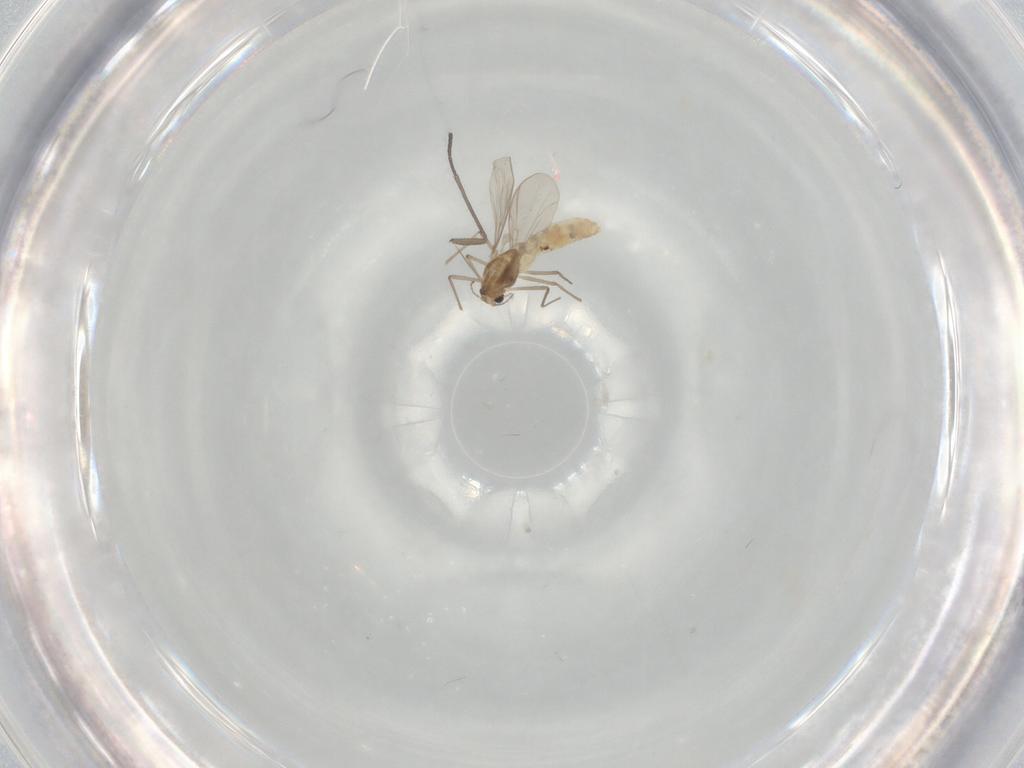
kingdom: Animalia
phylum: Arthropoda
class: Insecta
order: Diptera
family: Chironomidae
